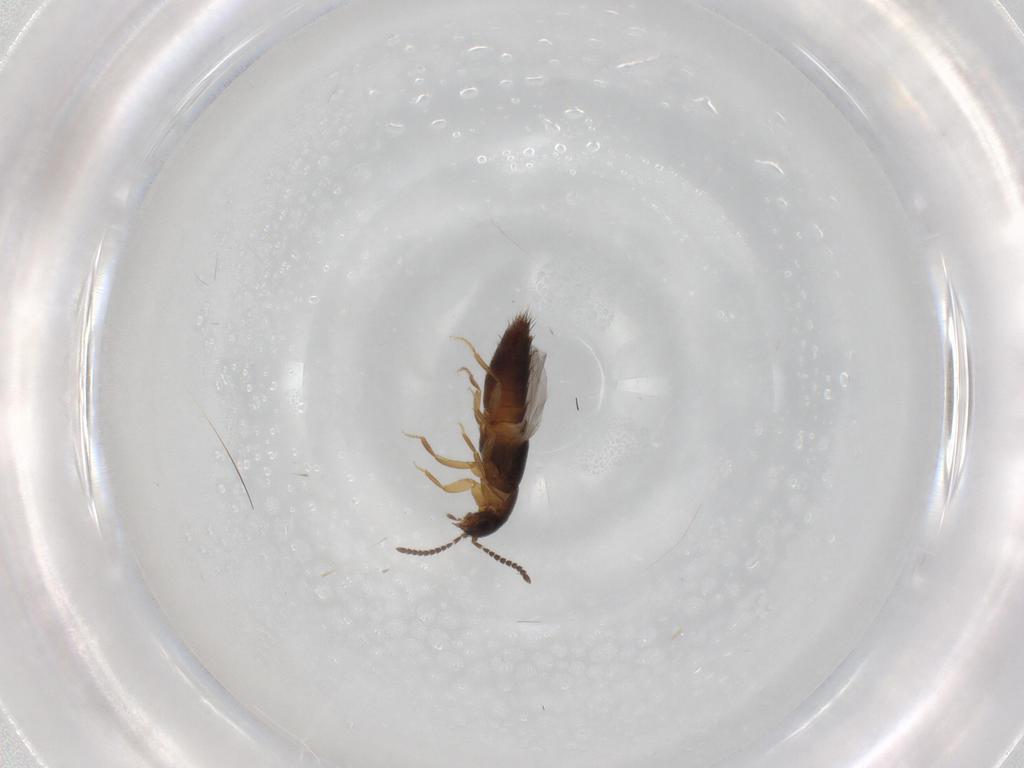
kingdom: Animalia
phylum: Arthropoda
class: Insecta
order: Coleoptera
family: Staphylinidae
